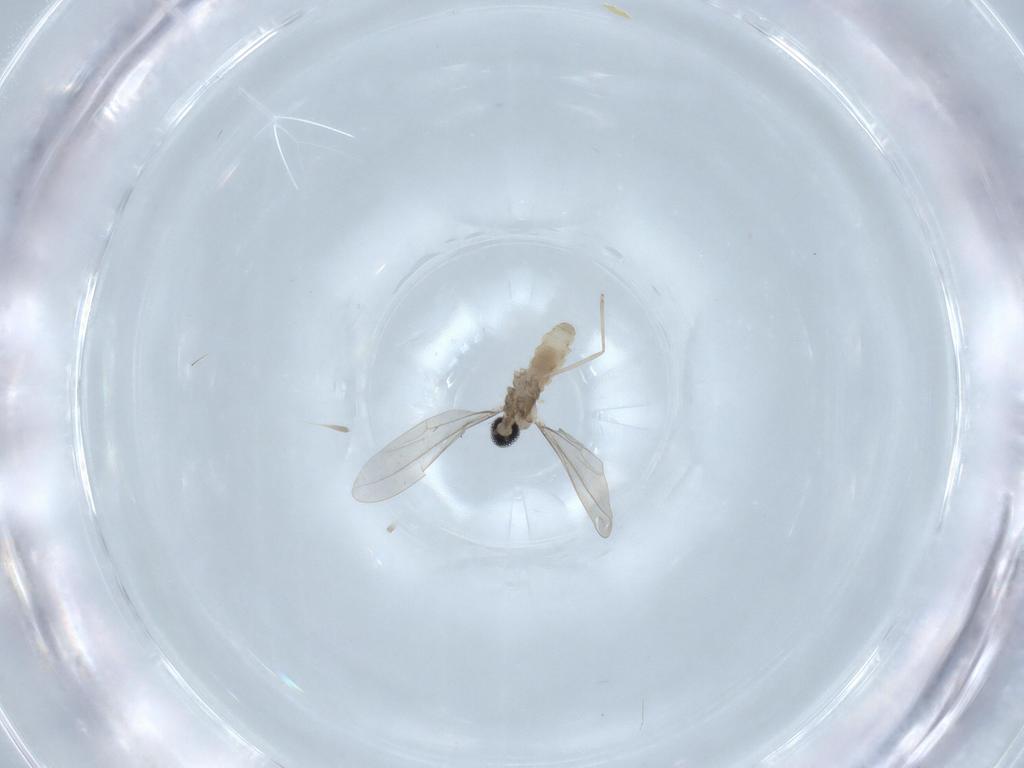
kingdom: Animalia
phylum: Arthropoda
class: Insecta
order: Diptera
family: Cecidomyiidae
